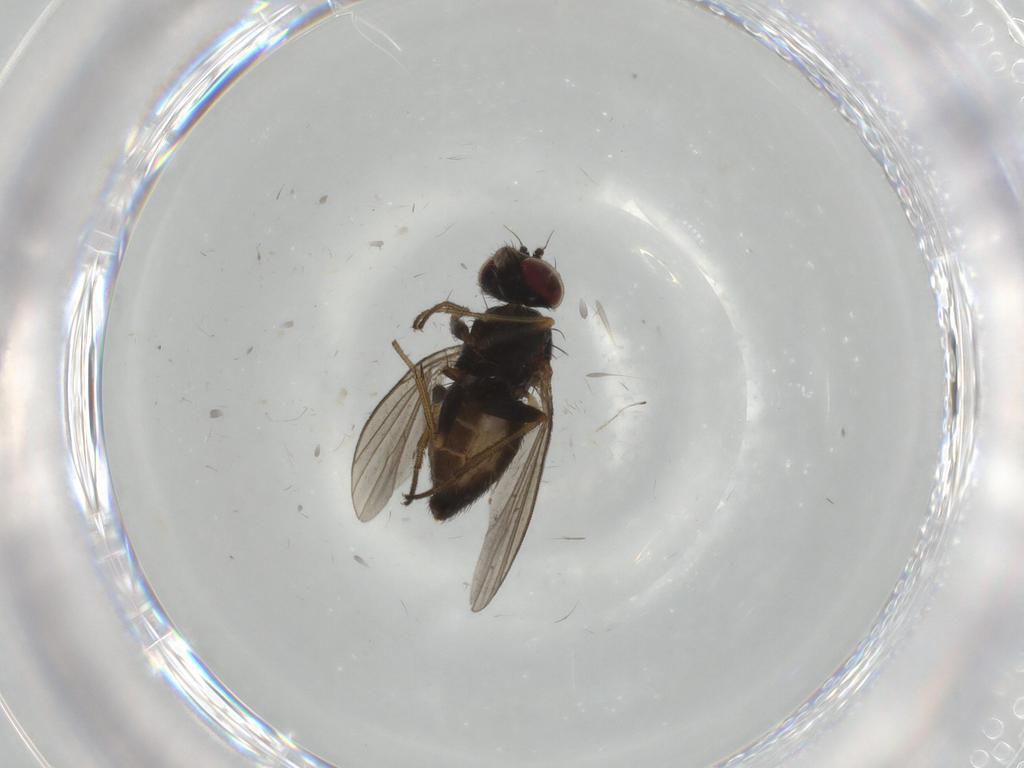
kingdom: Animalia
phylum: Arthropoda
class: Insecta
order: Diptera
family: Dolichopodidae
